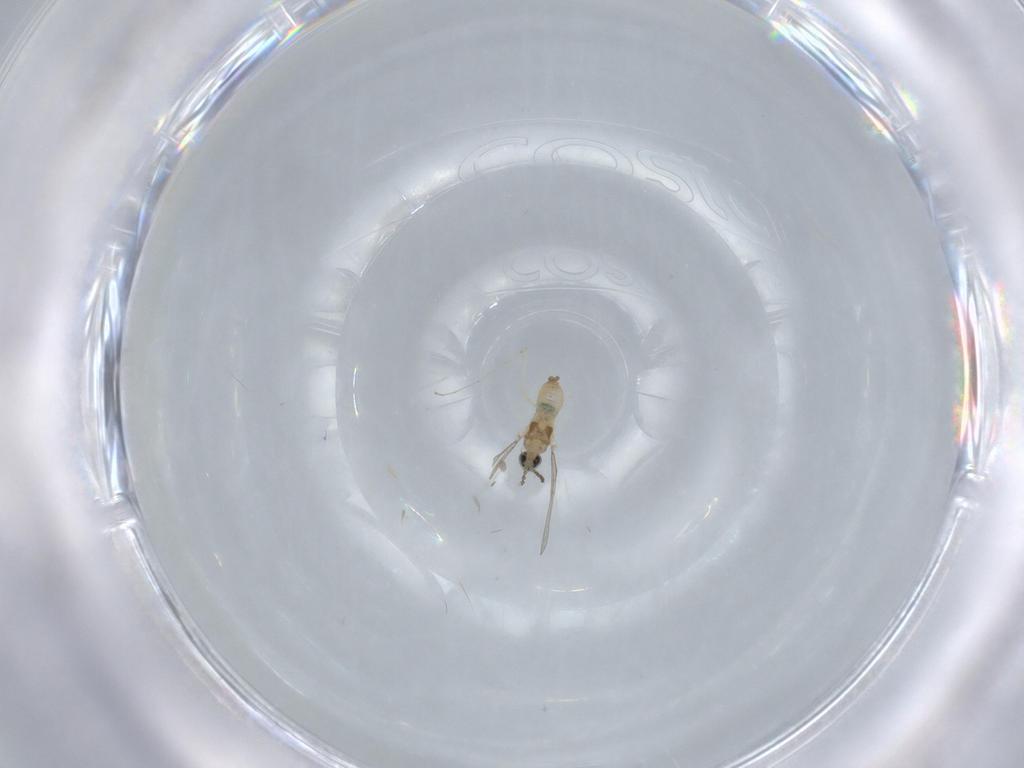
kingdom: Animalia
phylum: Arthropoda
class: Insecta
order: Diptera
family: Cecidomyiidae
